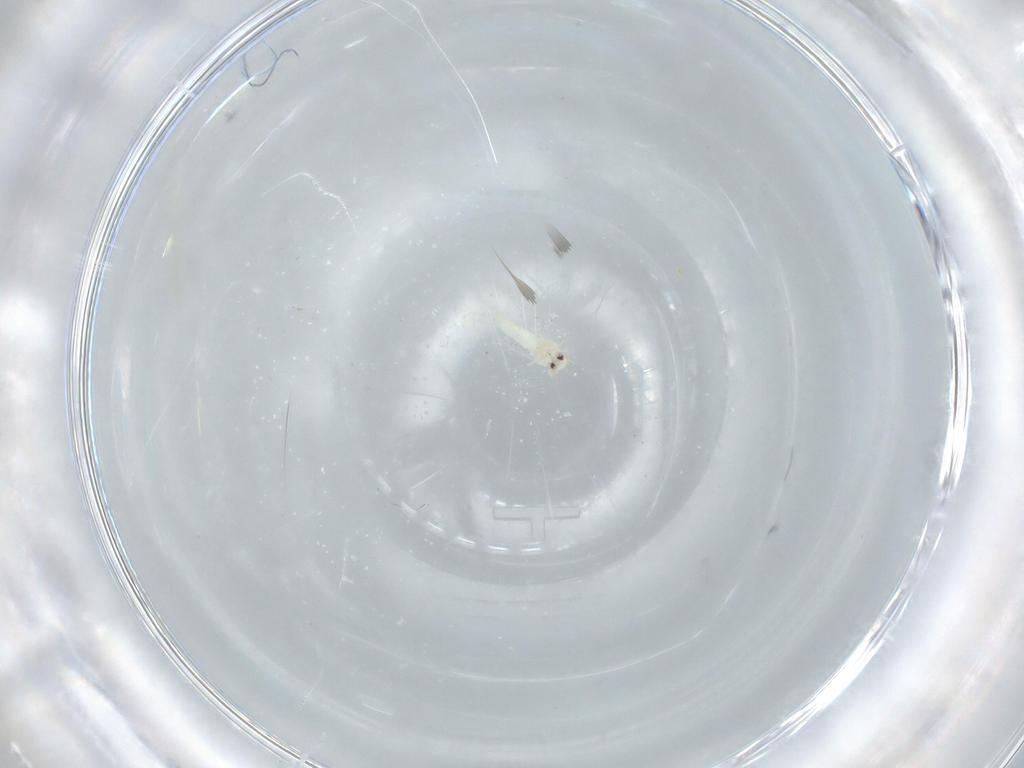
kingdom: Animalia
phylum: Arthropoda
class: Insecta
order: Hemiptera
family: Aleyrodidae
